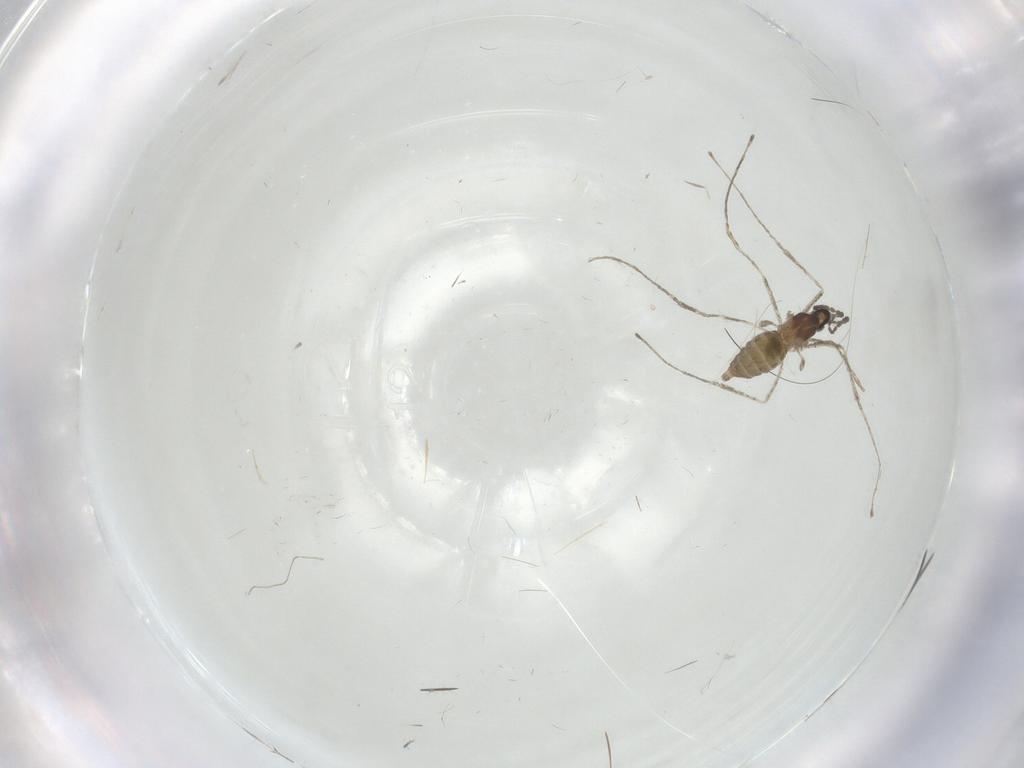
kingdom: Animalia
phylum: Arthropoda
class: Insecta
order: Diptera
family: Cecidomyiidae
